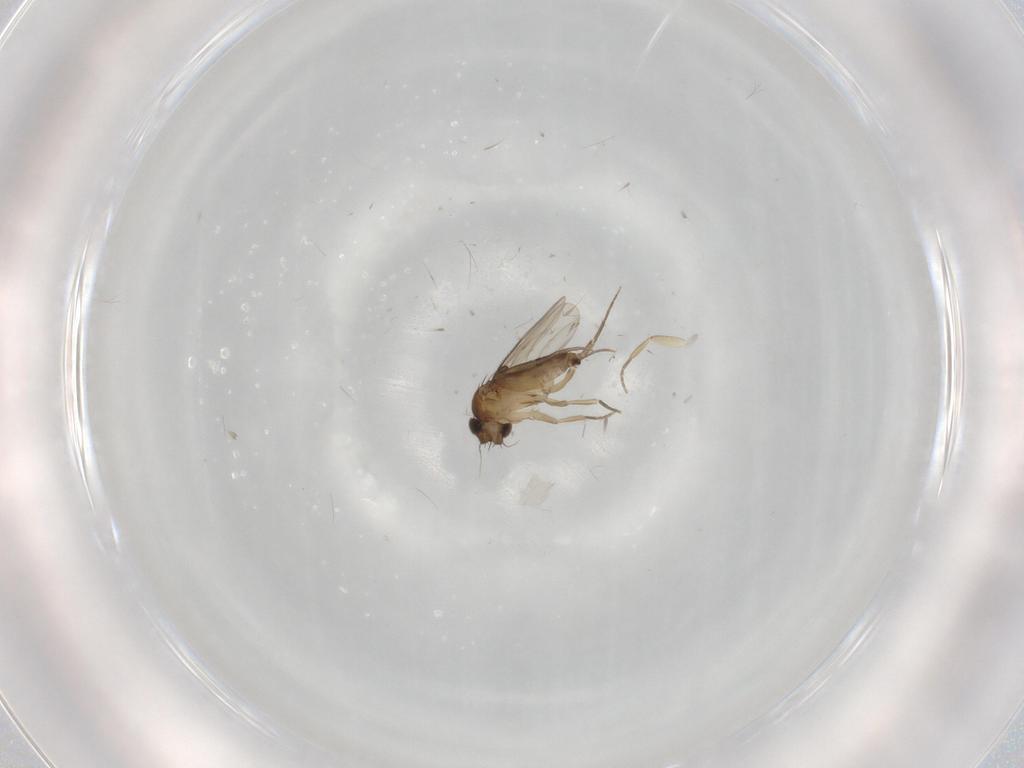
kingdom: Animalia
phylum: Arthropoda
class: Insecta
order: Diptera
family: Phoridae
